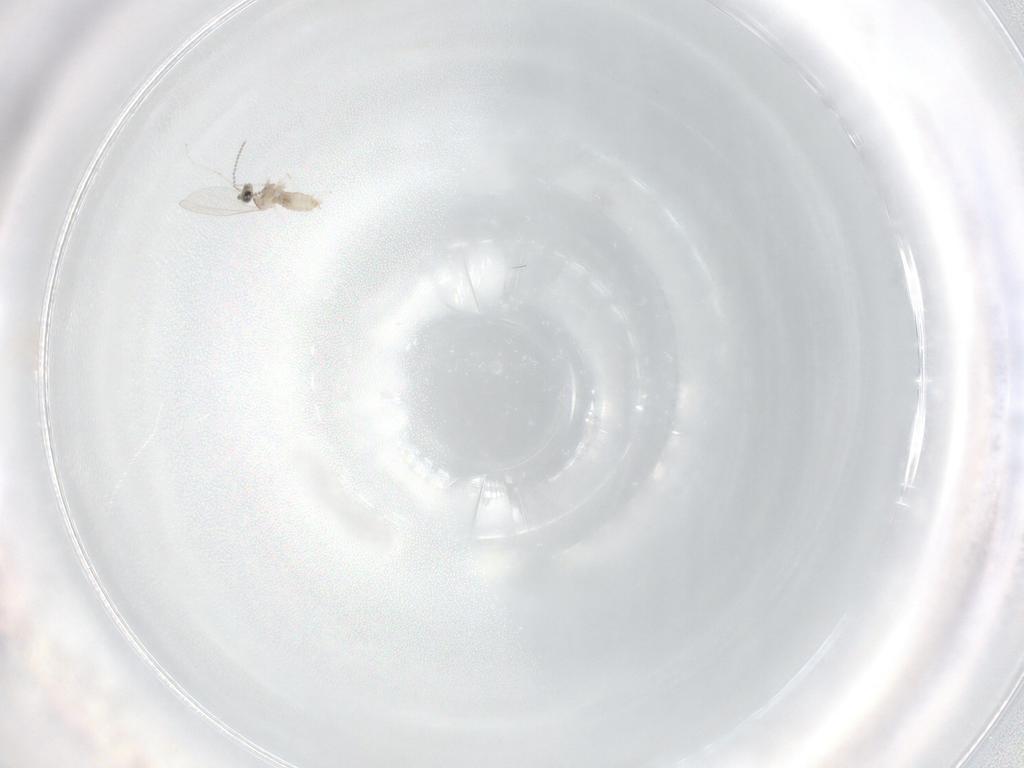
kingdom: Animalia
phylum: Arthropoda
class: Insecta
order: Diptera
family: Cecidomyiidae
